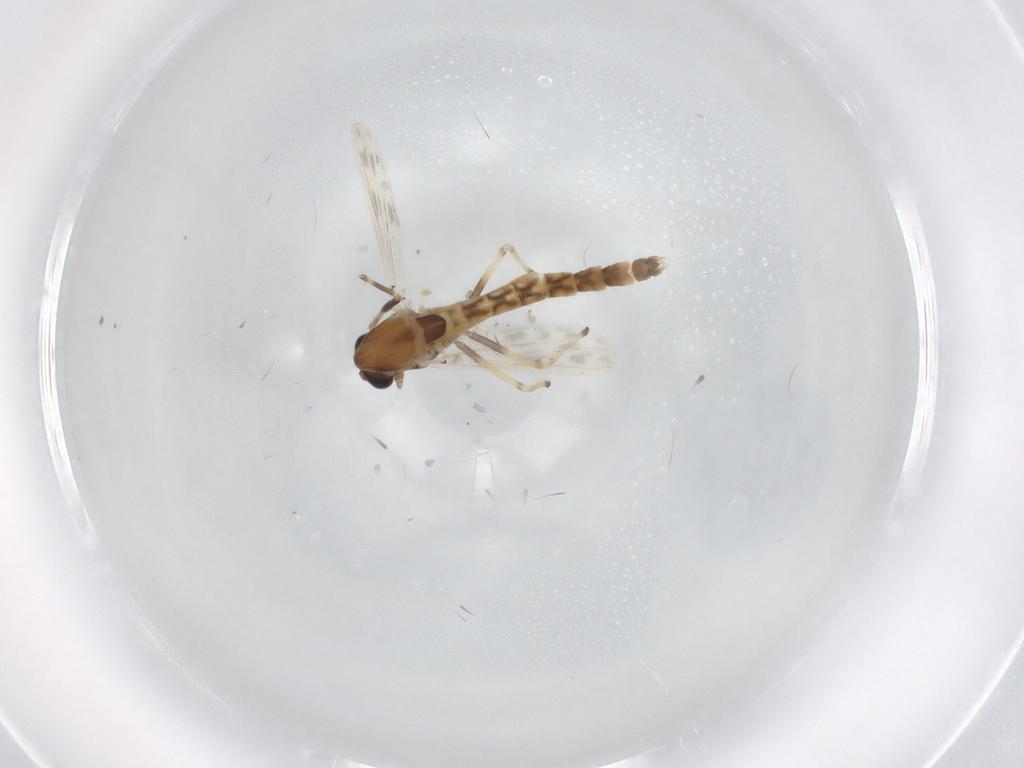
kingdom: Animalia
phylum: Arthropoda
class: Insecta
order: Diptera
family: Chironomidae
